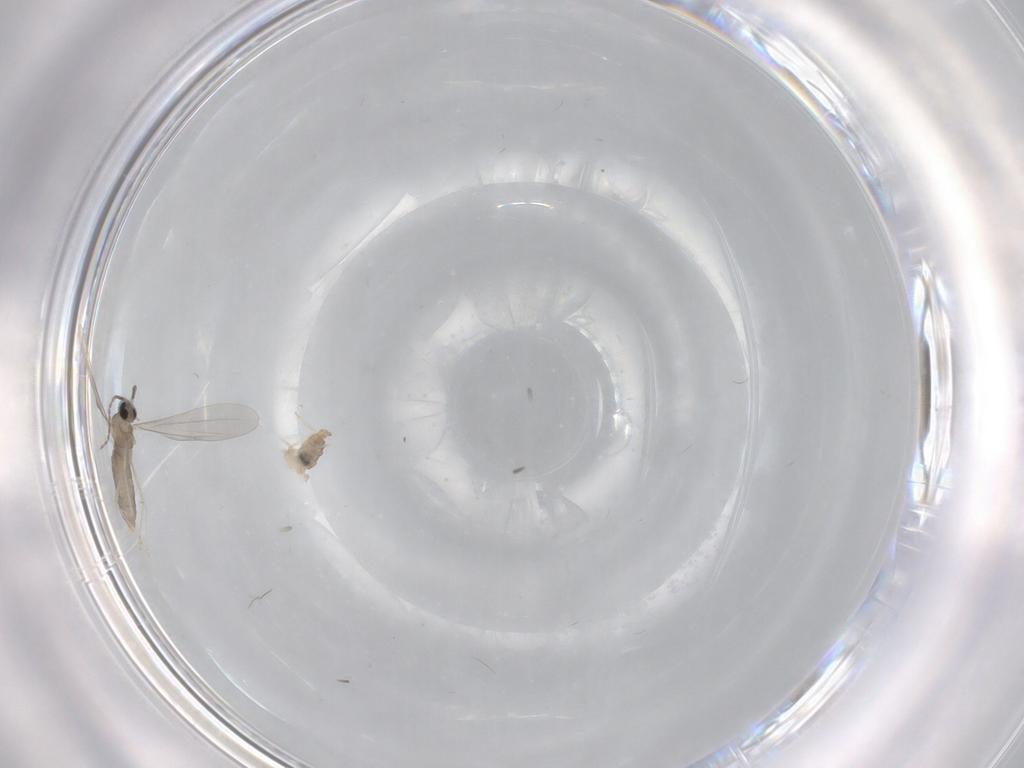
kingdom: Animalia
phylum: Arthropoda
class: Insecta
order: Diptera
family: Cecidomyiidae
